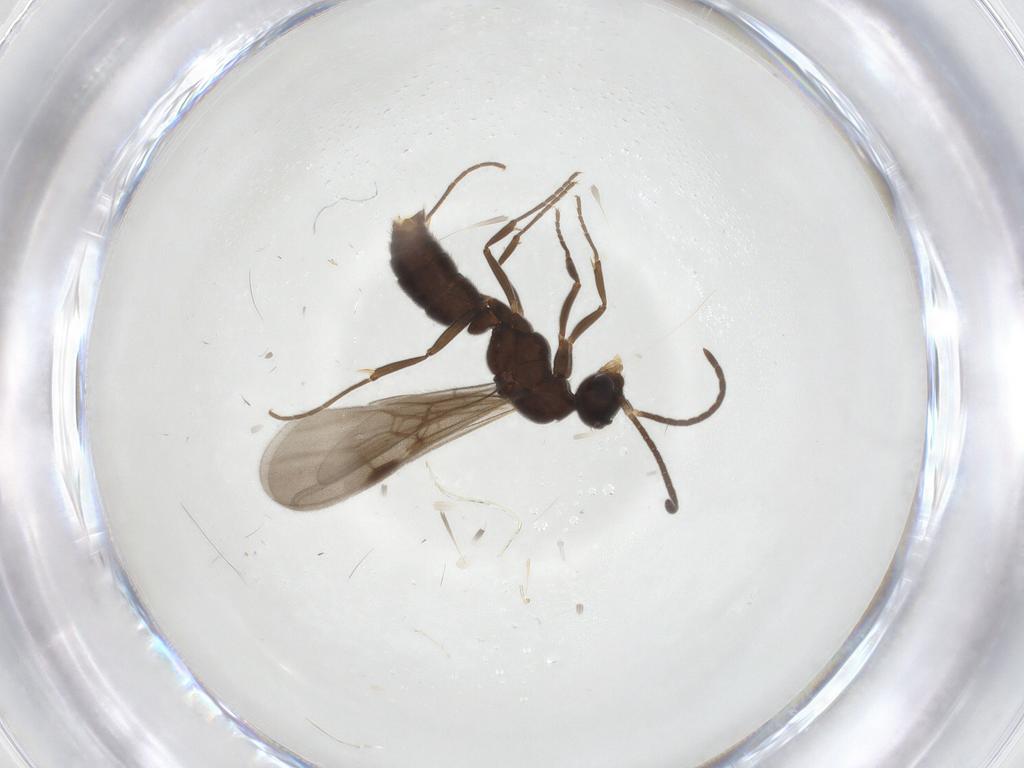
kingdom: Animalia
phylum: Arthropoda
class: Insecta
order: Hymenoptera
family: Formicidae
